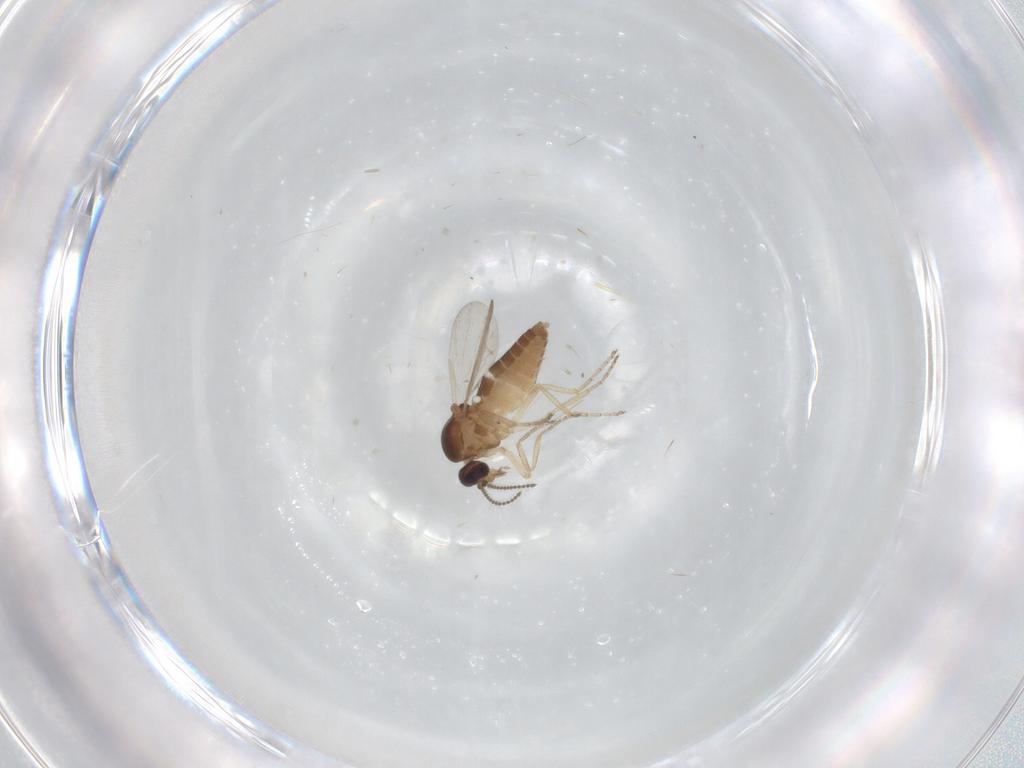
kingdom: Animalia
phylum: Arthropoda
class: Insecta
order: Diptera
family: Ceratopogonidae
